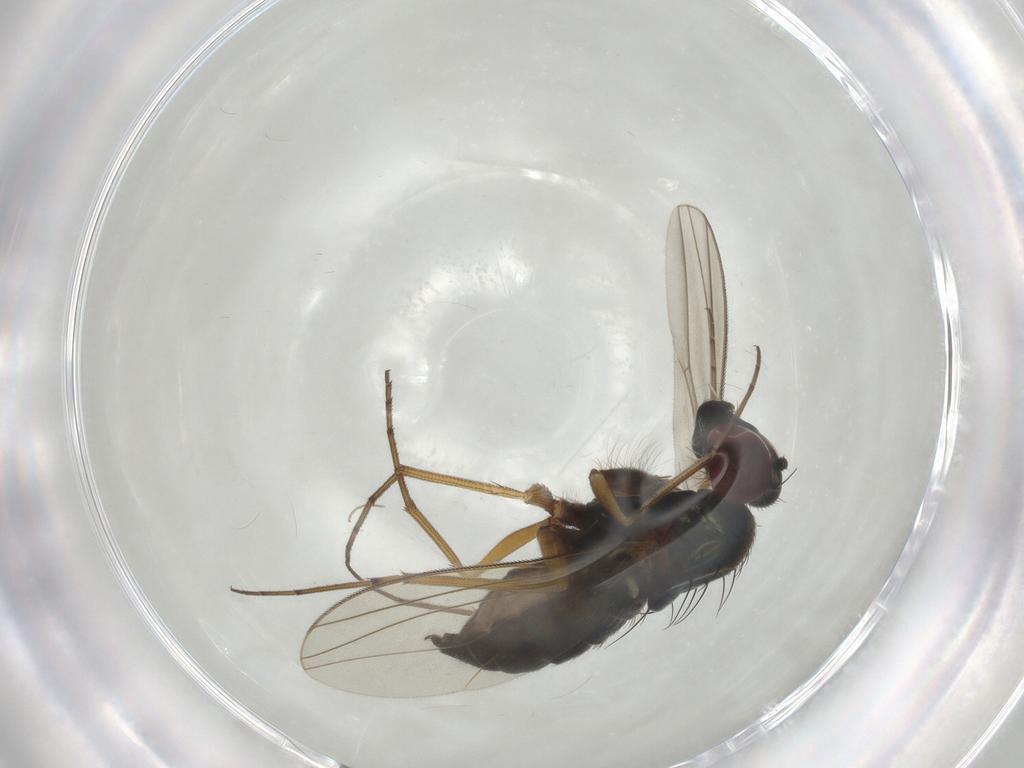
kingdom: Animalia
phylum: Arthropoda
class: Insecta
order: Diptera
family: Dolichopodidae
